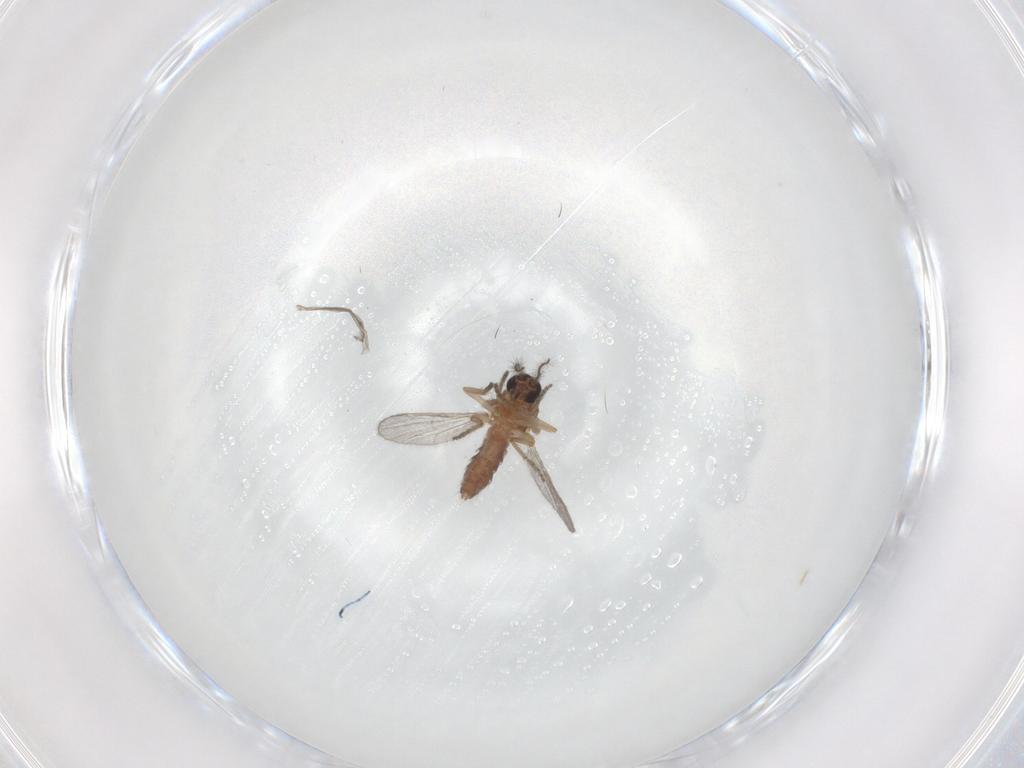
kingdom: Animalia
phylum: Arthropoda
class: Insecta
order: Diptera
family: Ceratopogonidae
